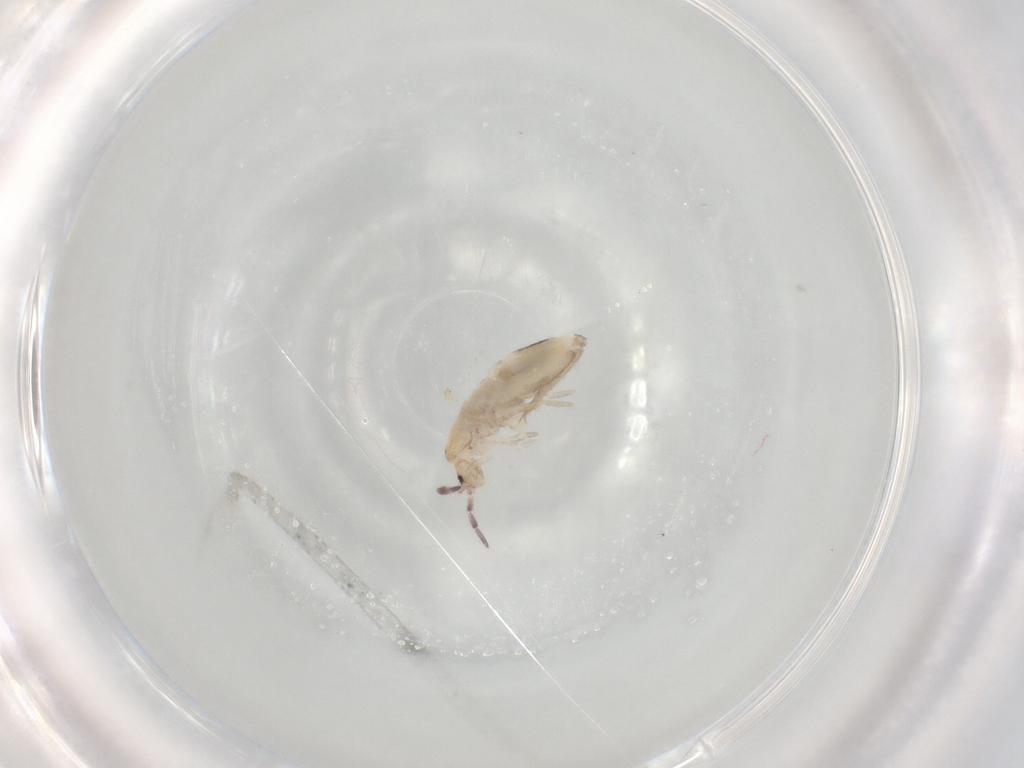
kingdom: Animalia
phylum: Arthropoda
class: Collembola
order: Entomobryomorpha
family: Entomobryidae
